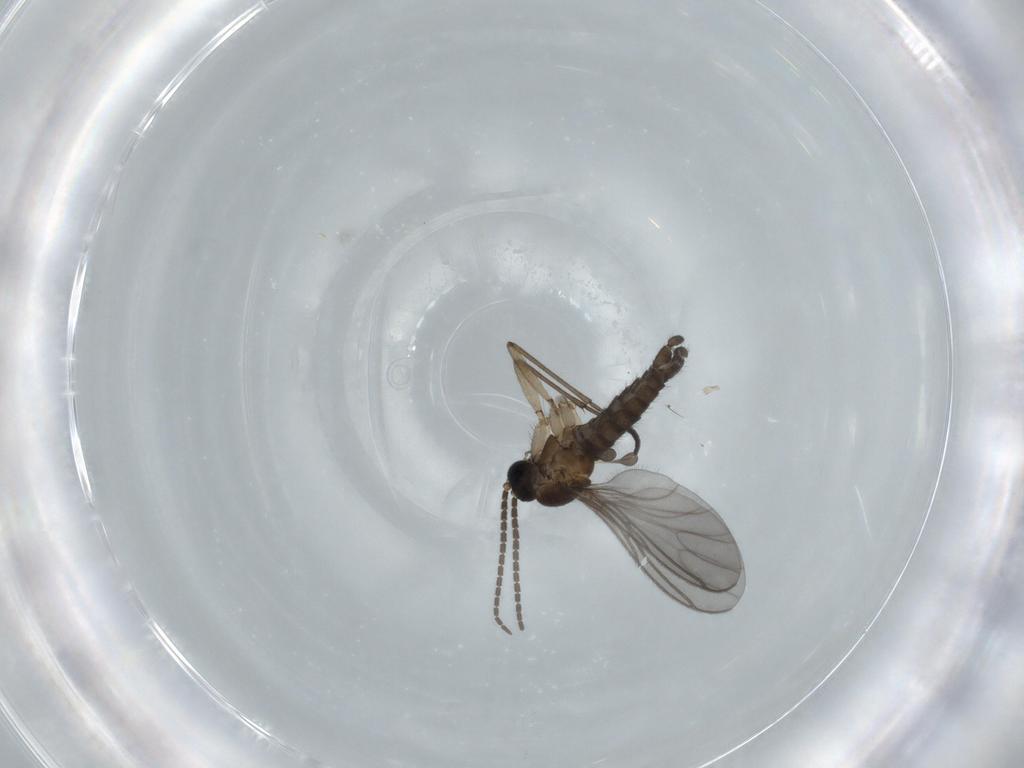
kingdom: Animalia
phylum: Arthropoda
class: Insecta
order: Diptera
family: Sciaridae
